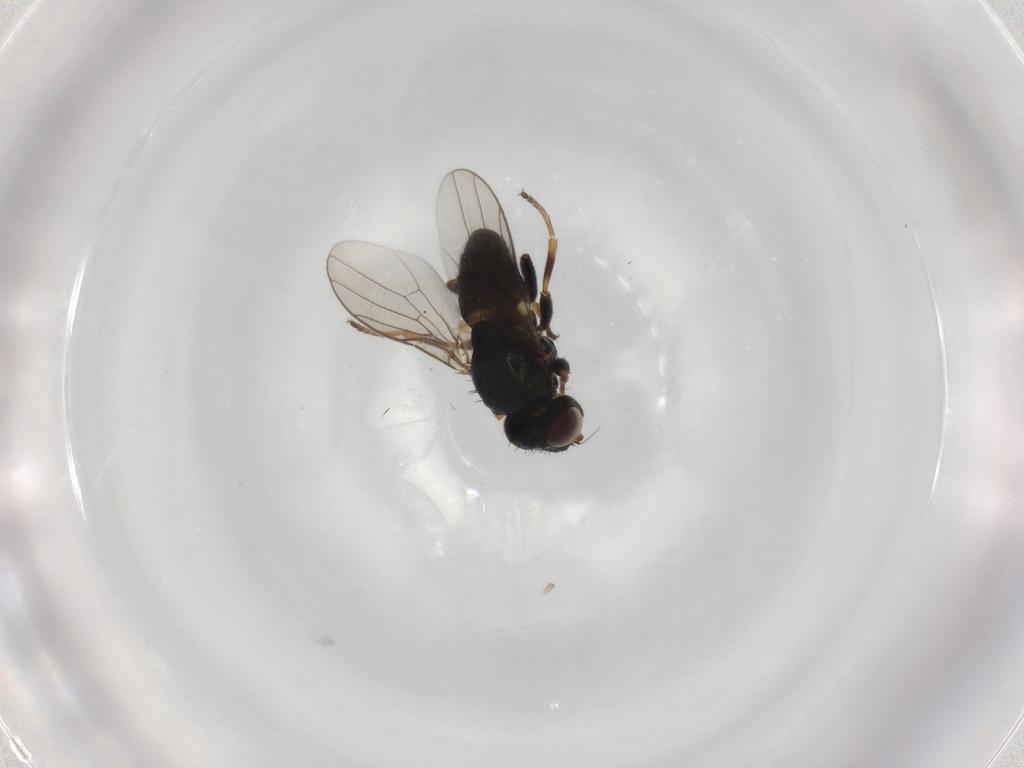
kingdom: Animalia
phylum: Arthropoda
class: Insecta
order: Diptera
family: Chloropidae
